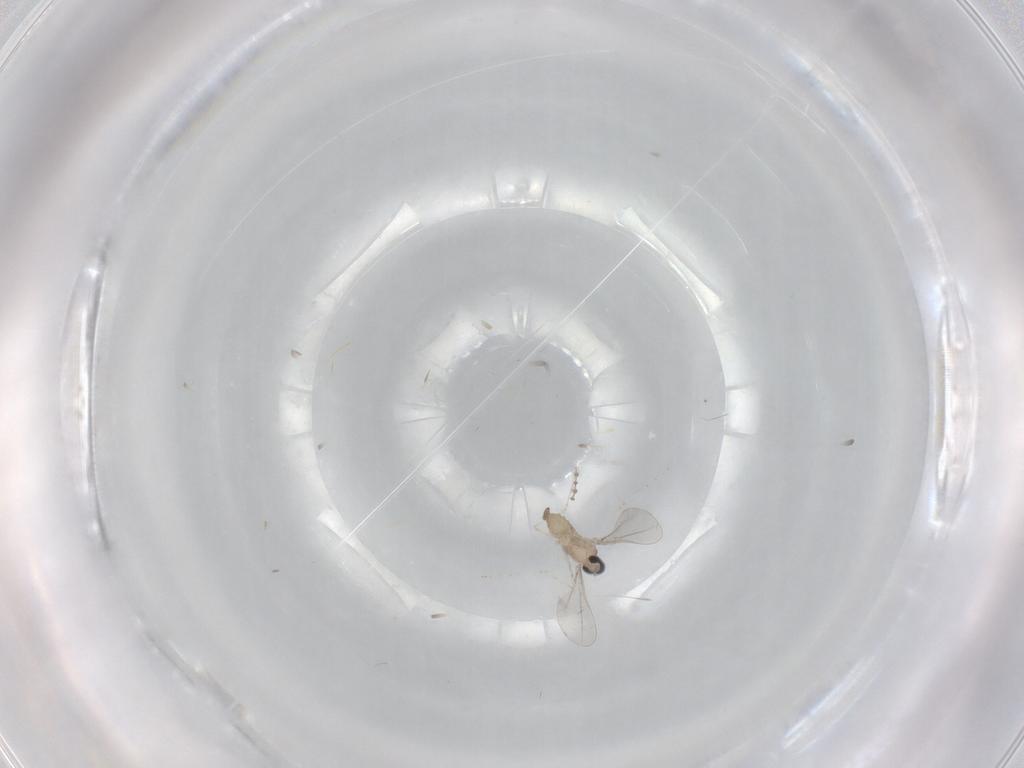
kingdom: Animalia
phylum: Arthropoda
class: Insecta
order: Diptera
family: Cecidomyiidae
